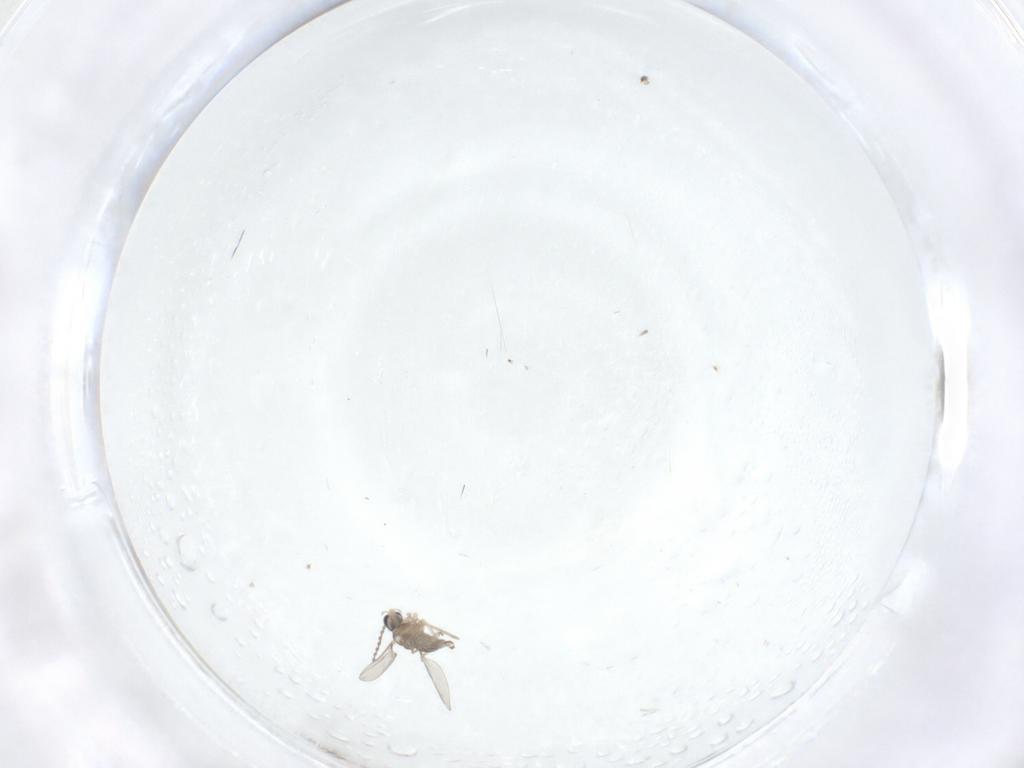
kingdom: Animalia
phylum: Arthropoda
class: Insecta
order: Diptera
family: Cecidomyiidae
